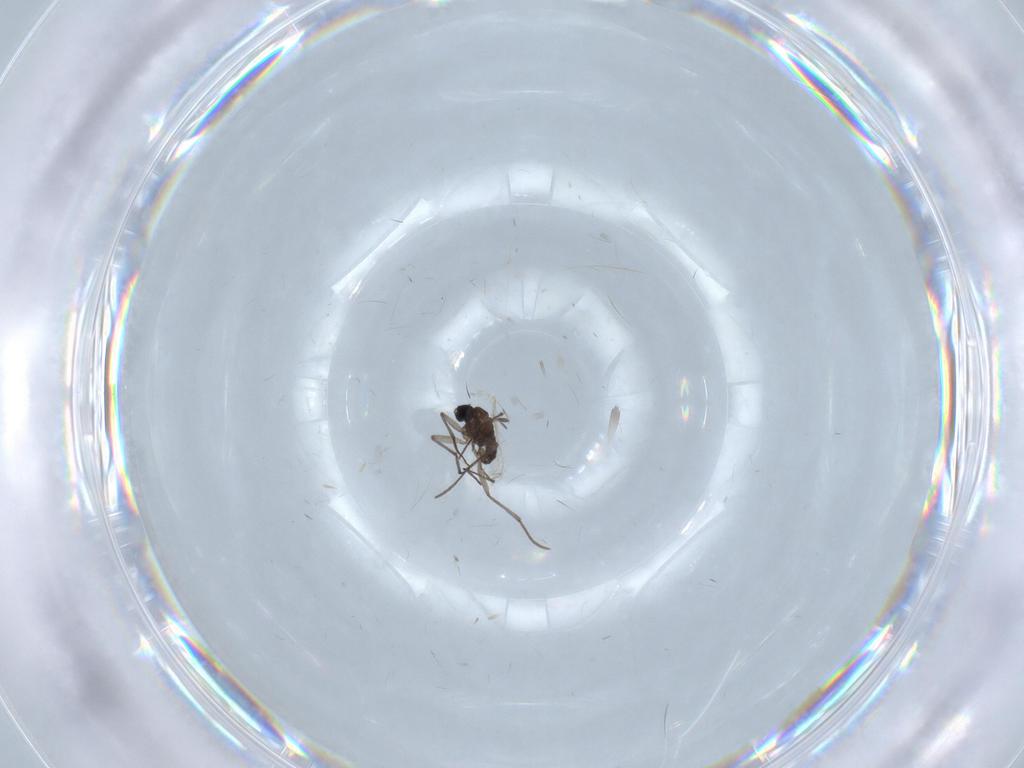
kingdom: Animalia
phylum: Arthropoda
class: Insecta
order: Diptera
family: Sciaridae
